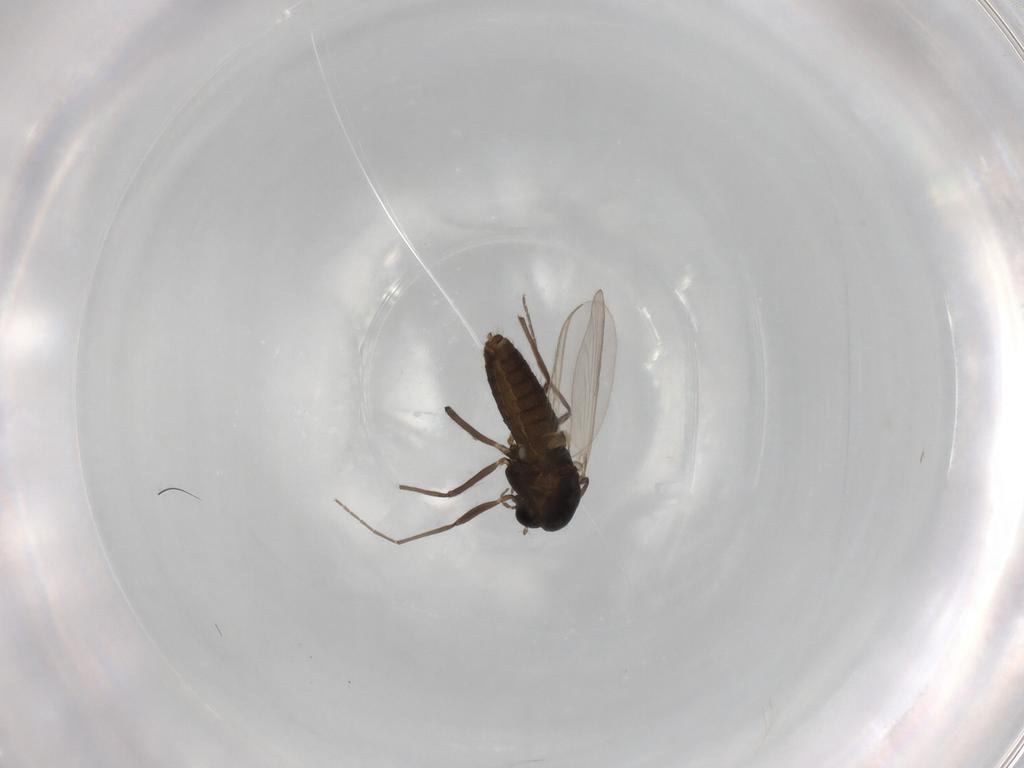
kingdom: Animalia
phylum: Arthropoda
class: Insecta
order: Diptera
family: Chironomidae
